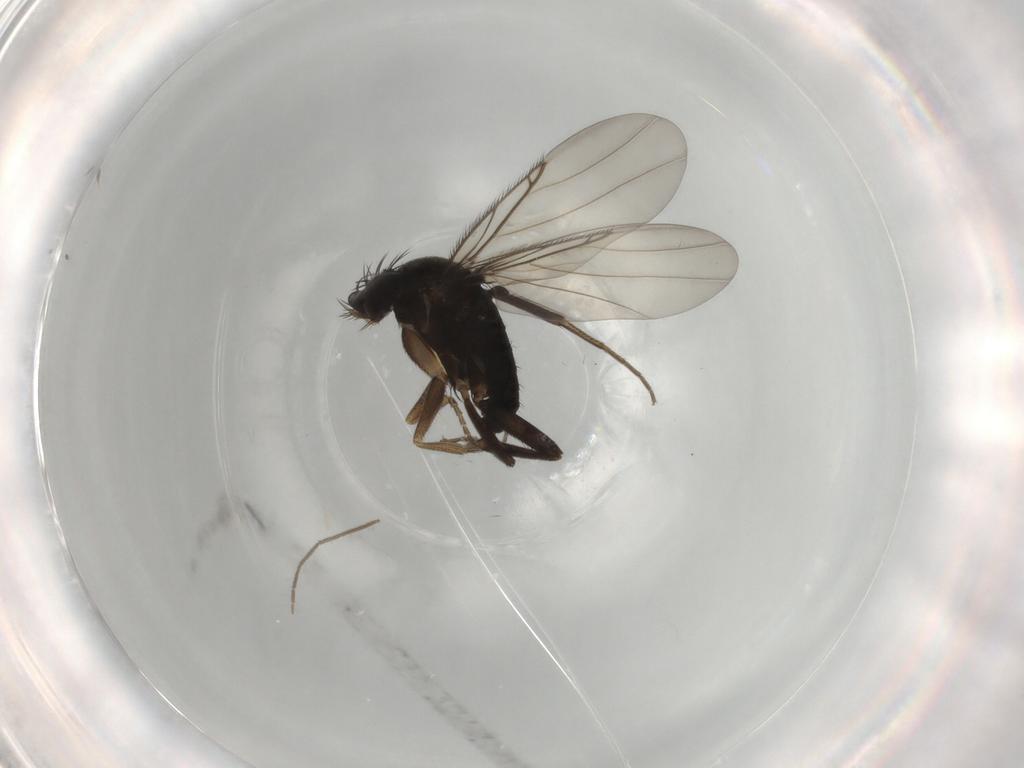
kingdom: Animalia
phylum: Arthropoda
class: Insecta
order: Diptera
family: Phoridae
